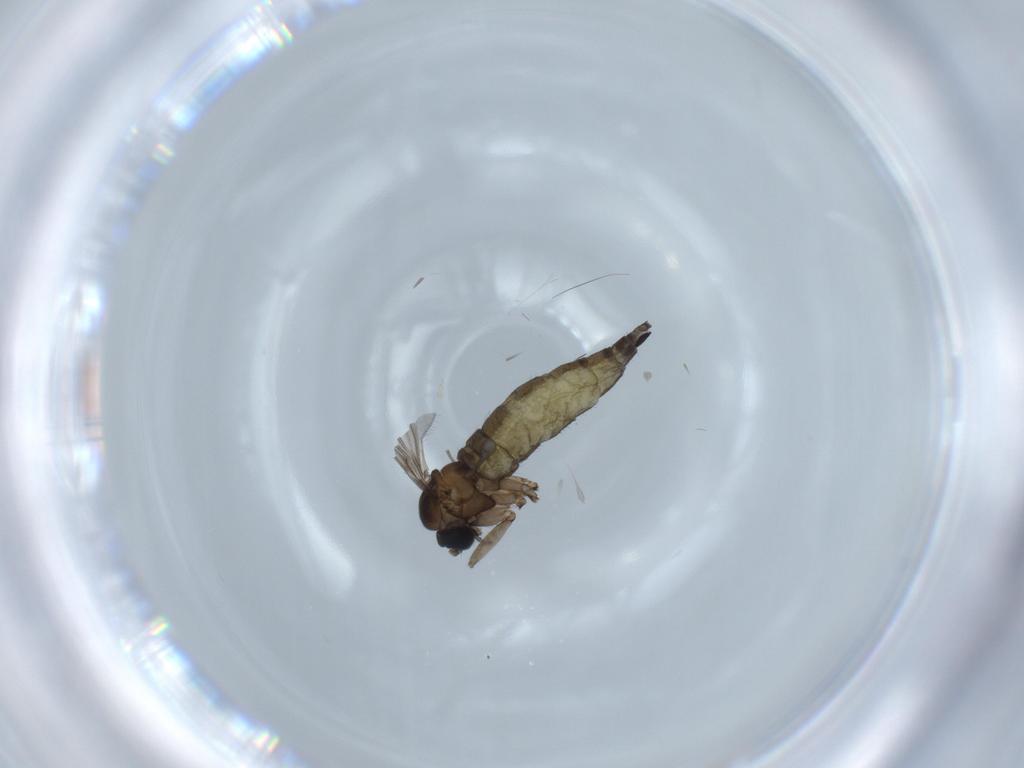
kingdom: Animalia
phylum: Arthropoda
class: Insecta
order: Diptera
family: Sciaridae
